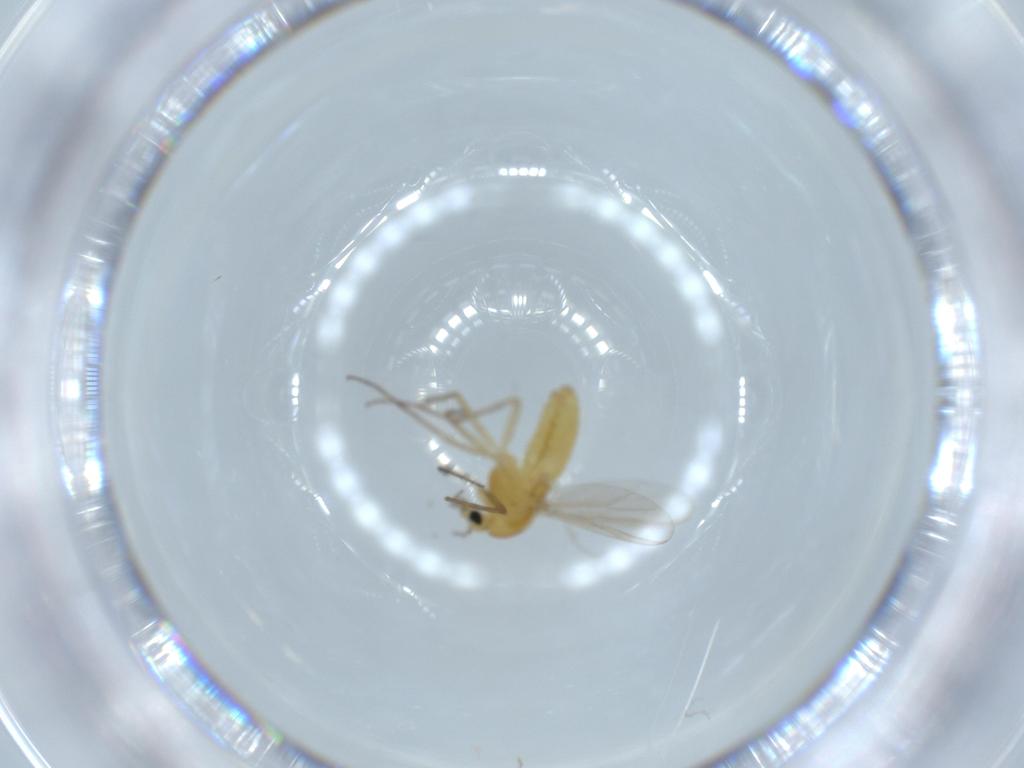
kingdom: Animalia
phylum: Arthropoda
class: Insecta
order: Diptera
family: Chironomidae
